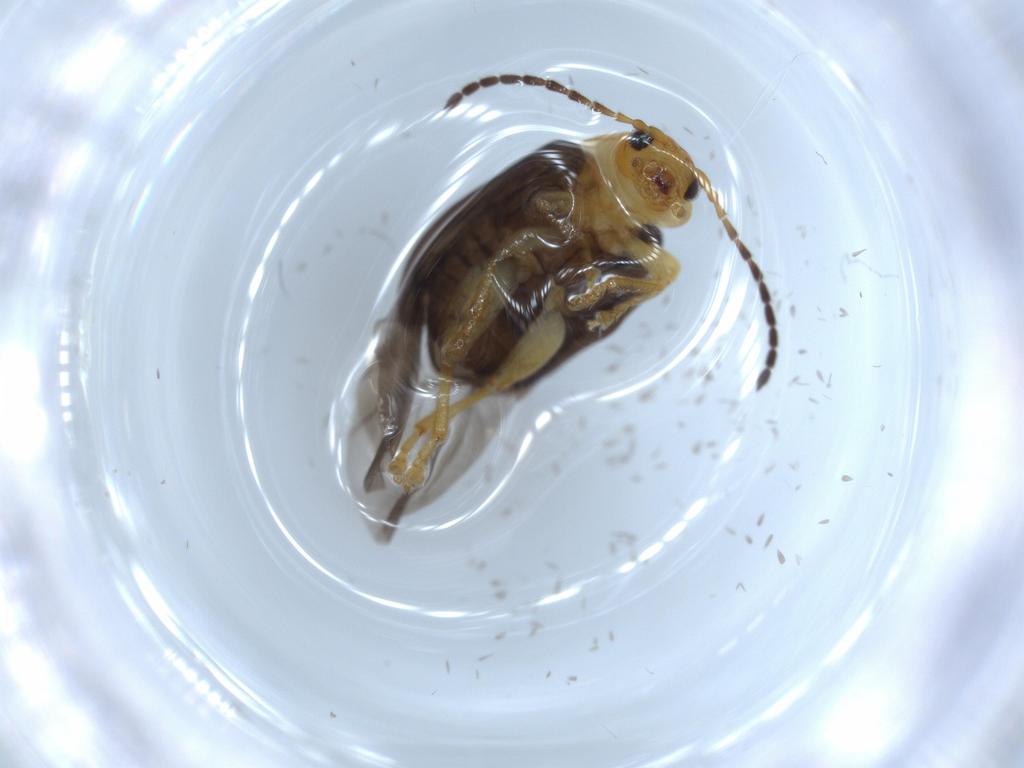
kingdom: Animalia
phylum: Arthropoda
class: Insecta
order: Coleoptera
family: Chrysomelidae
